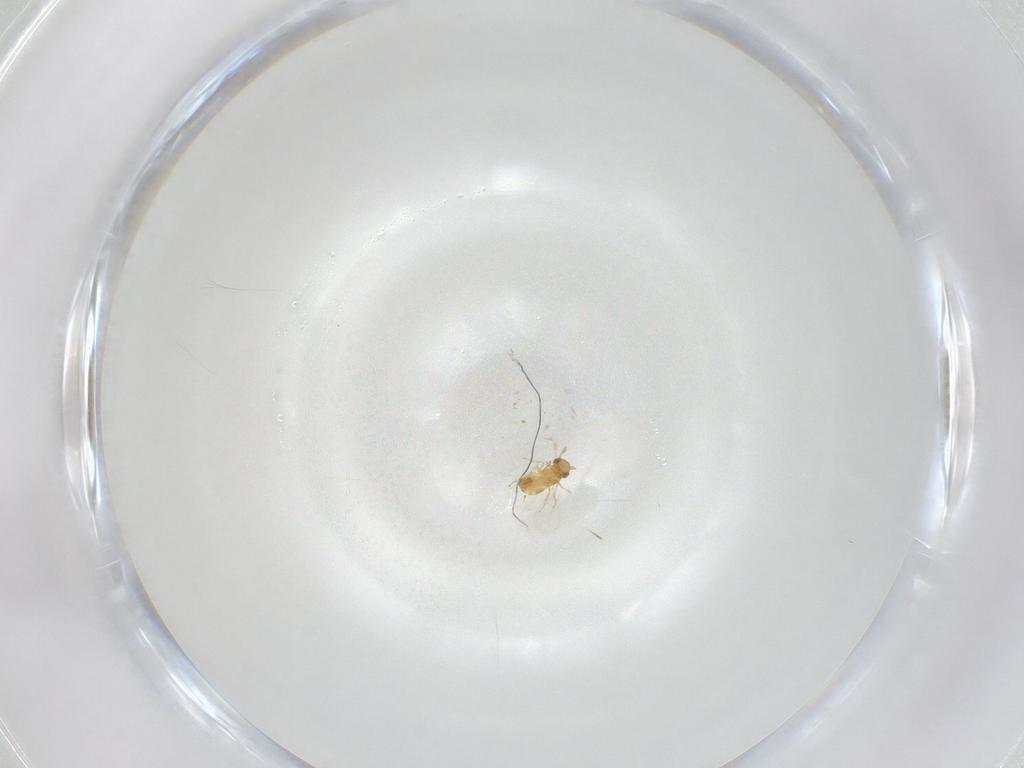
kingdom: Animalia
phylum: Arthropoda
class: Insecta
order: Hymenoptera
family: Trichogrammatidae
